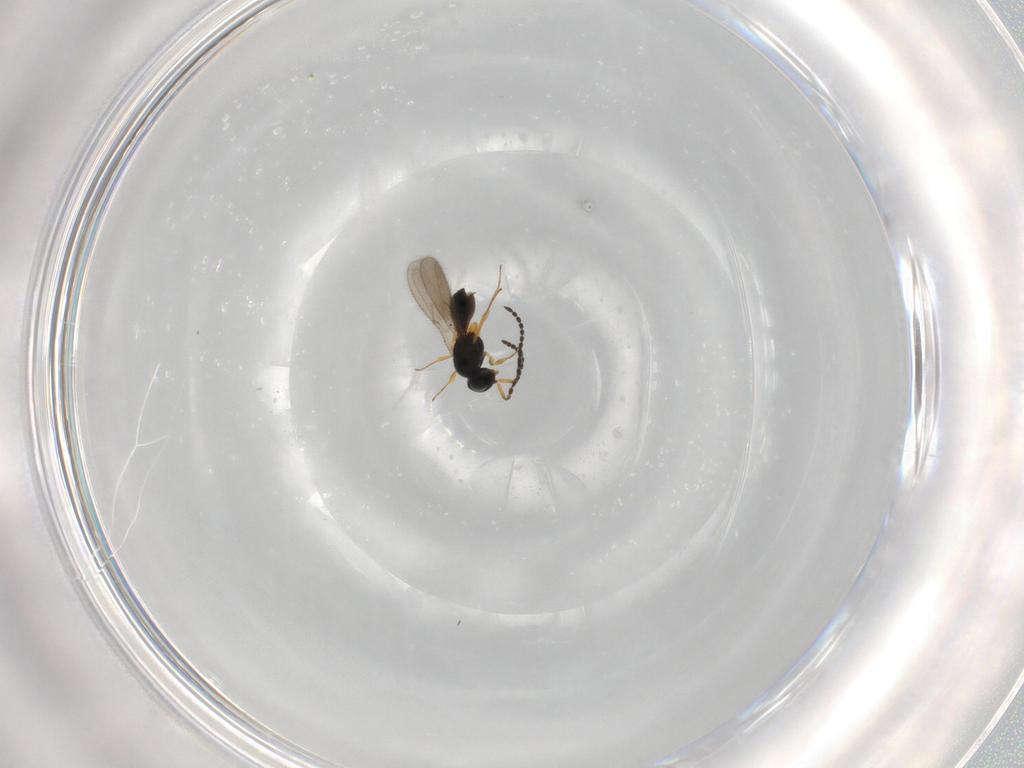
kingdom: Animalia
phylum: Arthropoda
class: Insecta
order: Hymenoptera
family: Scelionidae
